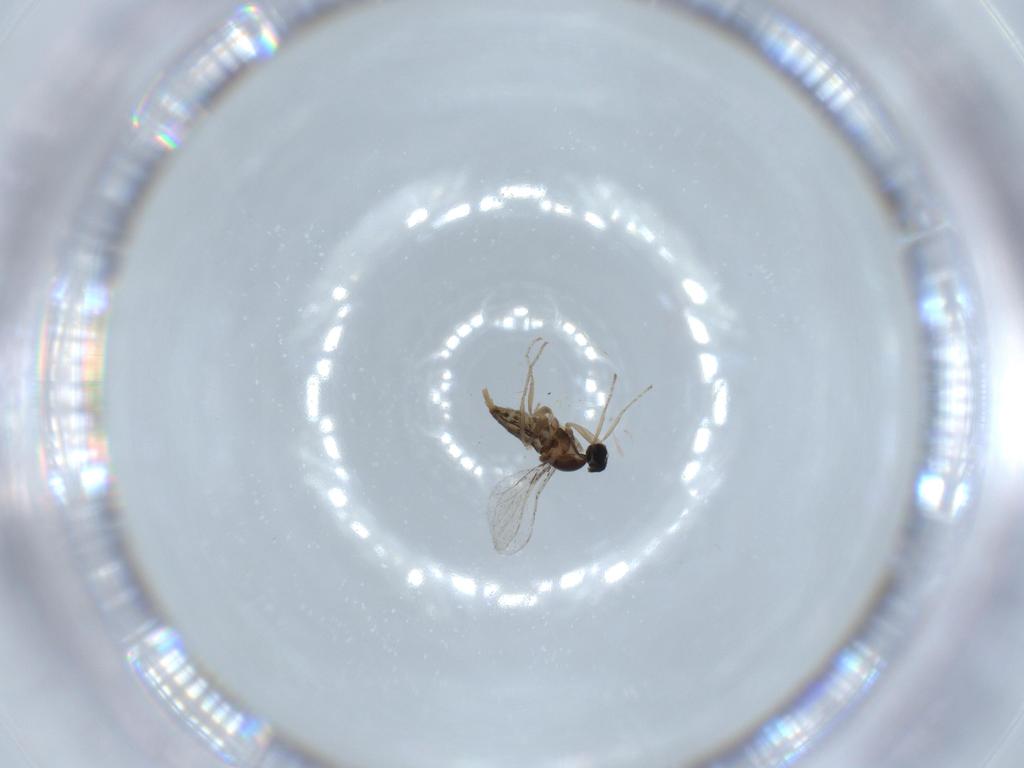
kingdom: Animalia
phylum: Arthropoda
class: Insecta
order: Diptera
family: Cecidomyiidae
